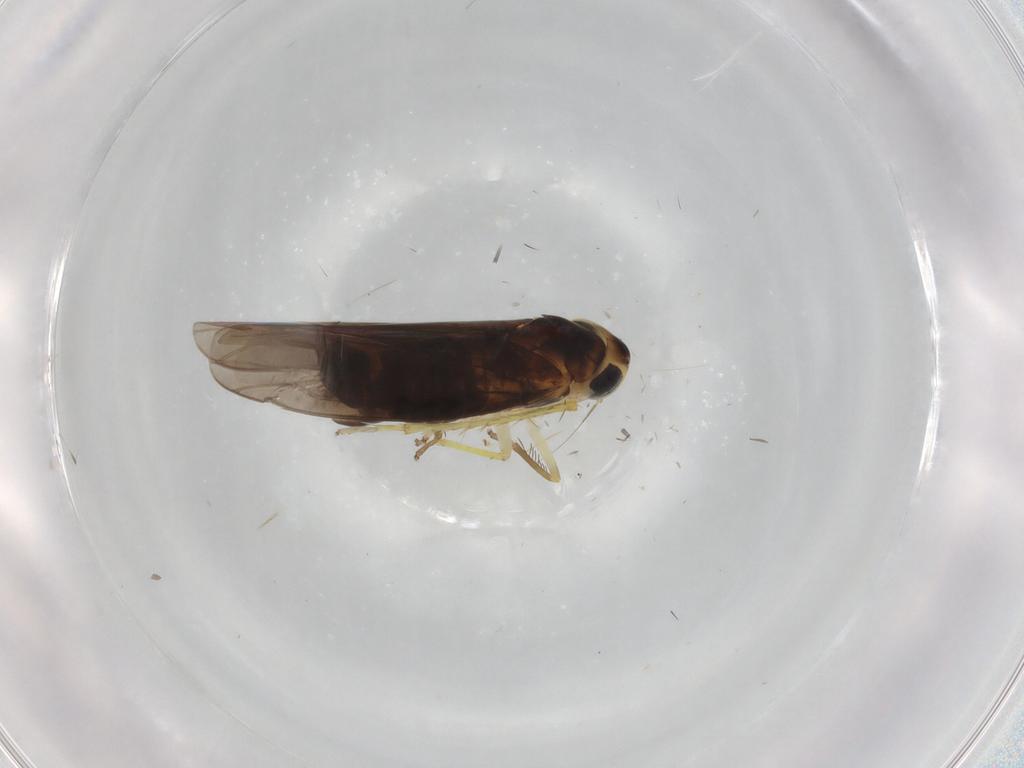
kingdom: Animalia
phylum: Arthropoda
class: Insecta
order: Hemiptera
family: Cicadellidae
